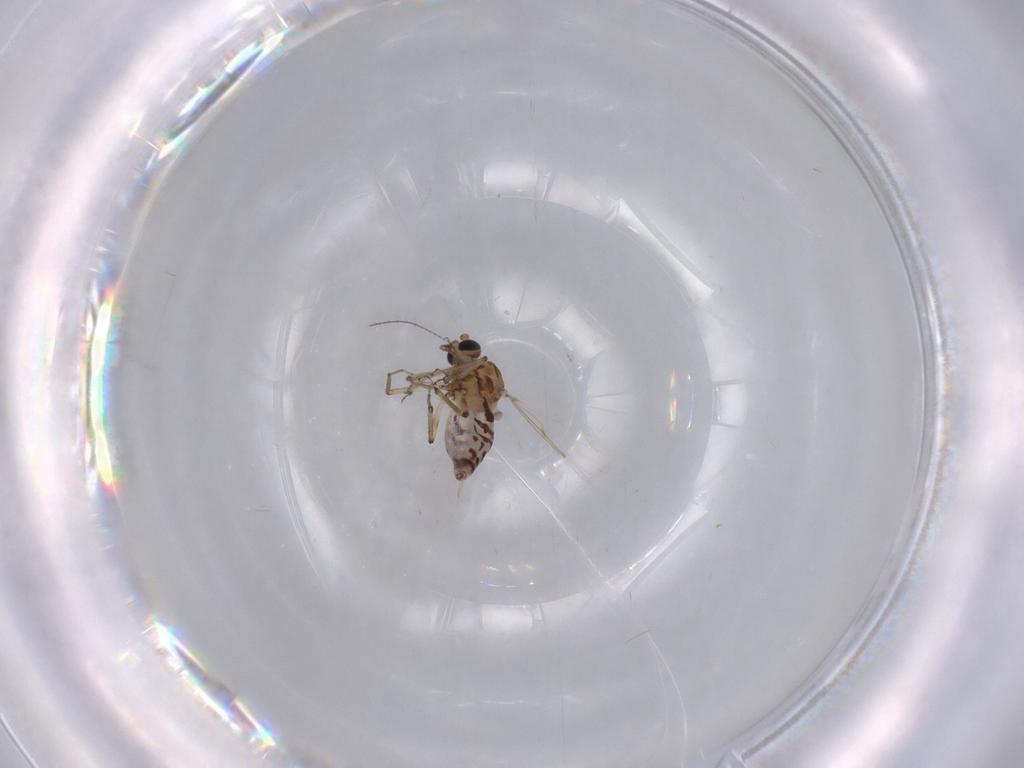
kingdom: Animalia
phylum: Arthropoda
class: Insecta
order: Diptera
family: Ceratopogonidae
